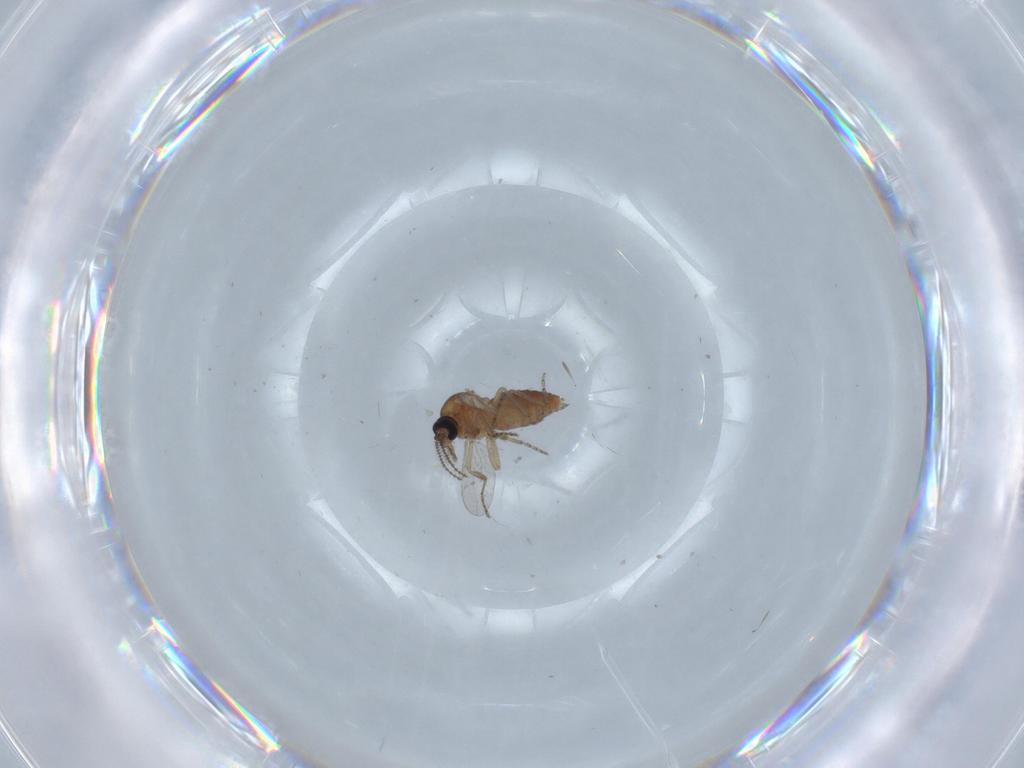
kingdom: Animalia
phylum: Arthropoda
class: Insecta
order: Diptera
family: Ceratopogonidae
